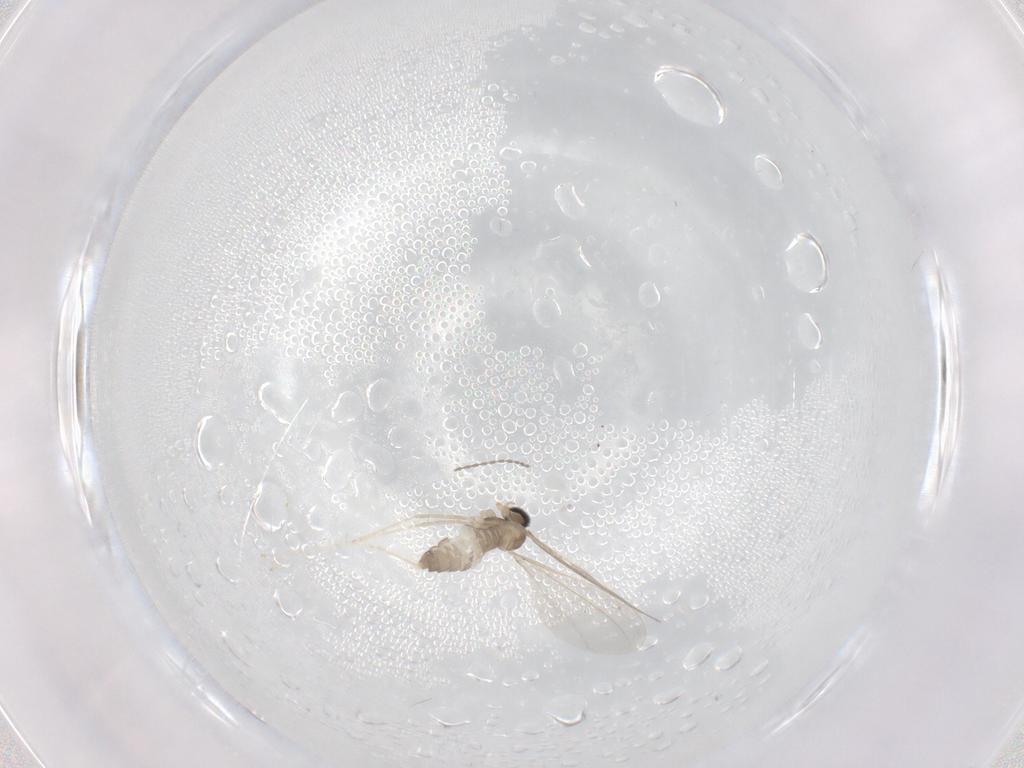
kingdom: Animalia
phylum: Arthropoda
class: Insecta
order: Diptera
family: Cecidomyiidae
